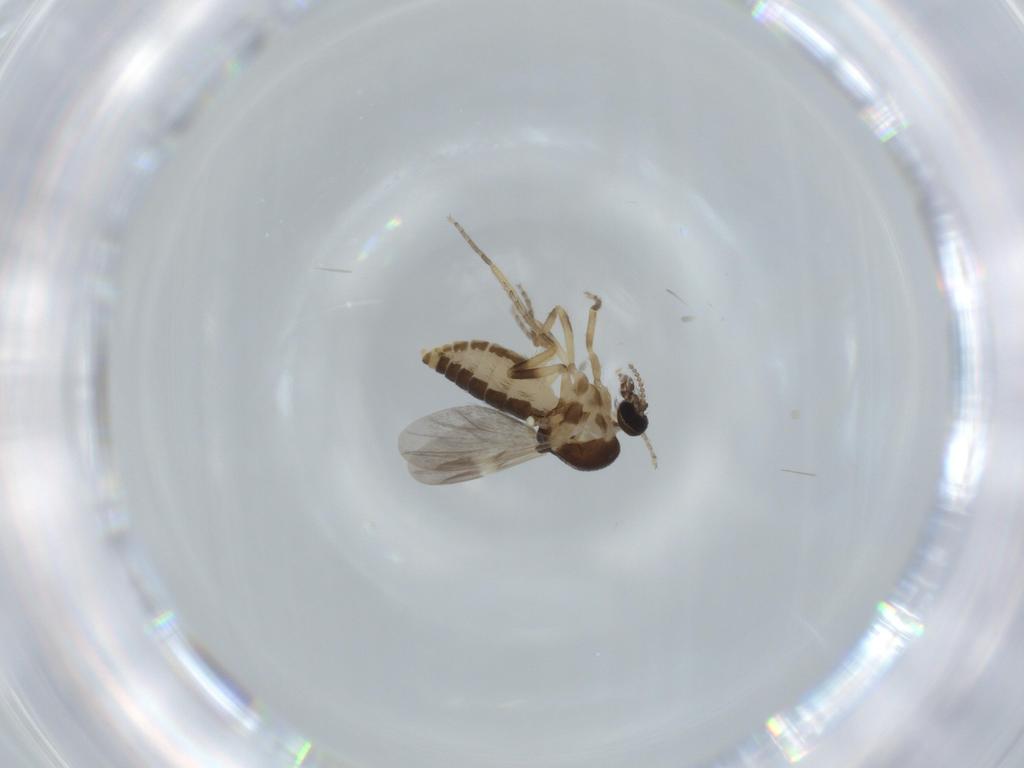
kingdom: Animalia
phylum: Arthropoda
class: Insecta
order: Diptera
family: Ceratopogonidae
